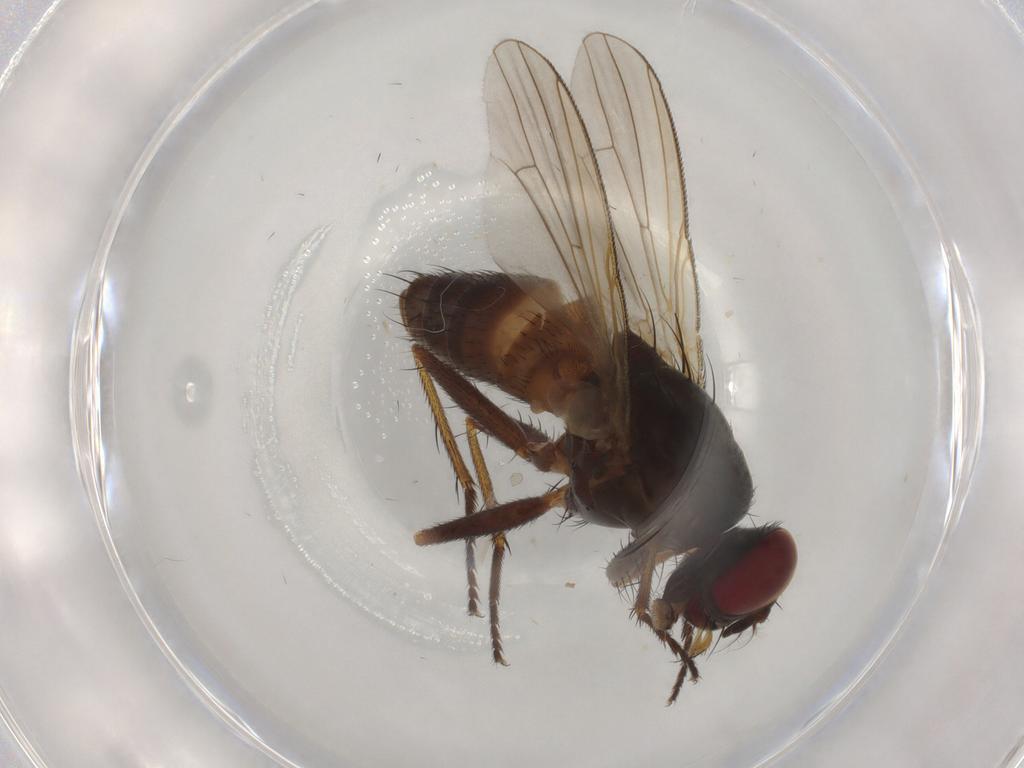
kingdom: Animalia
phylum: Arthropoda
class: Insecta
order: Diptera
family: Muscidae
